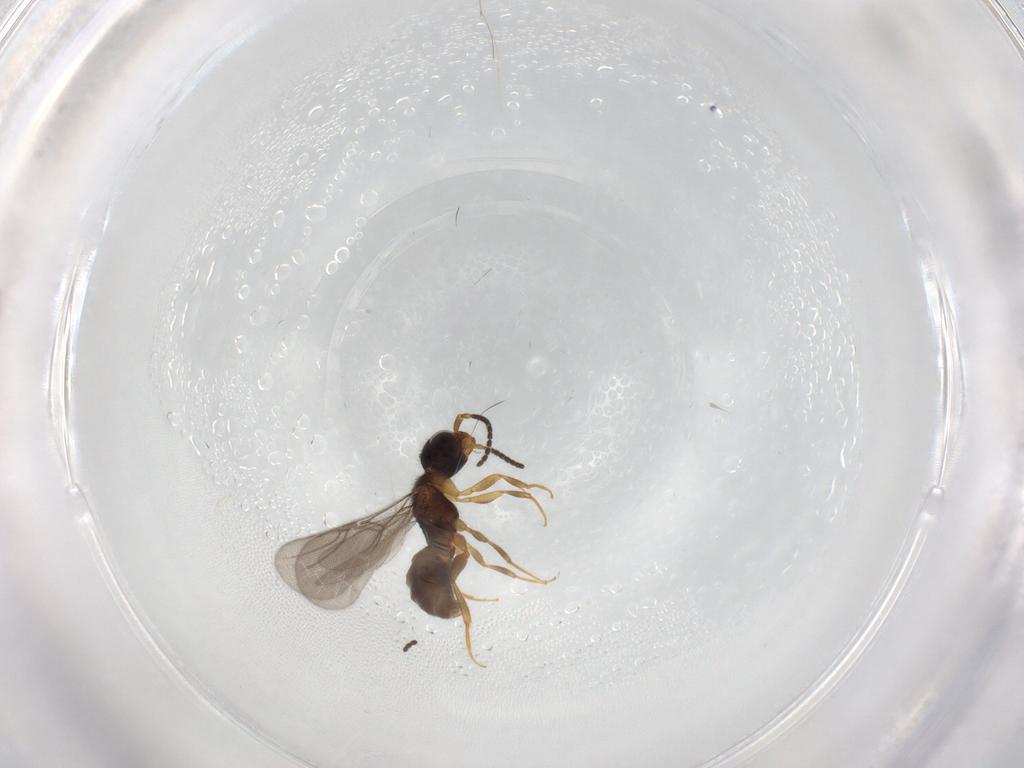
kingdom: Animalia
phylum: Arthropoda
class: Insecta
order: Hymenoptera
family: Bethylidae
